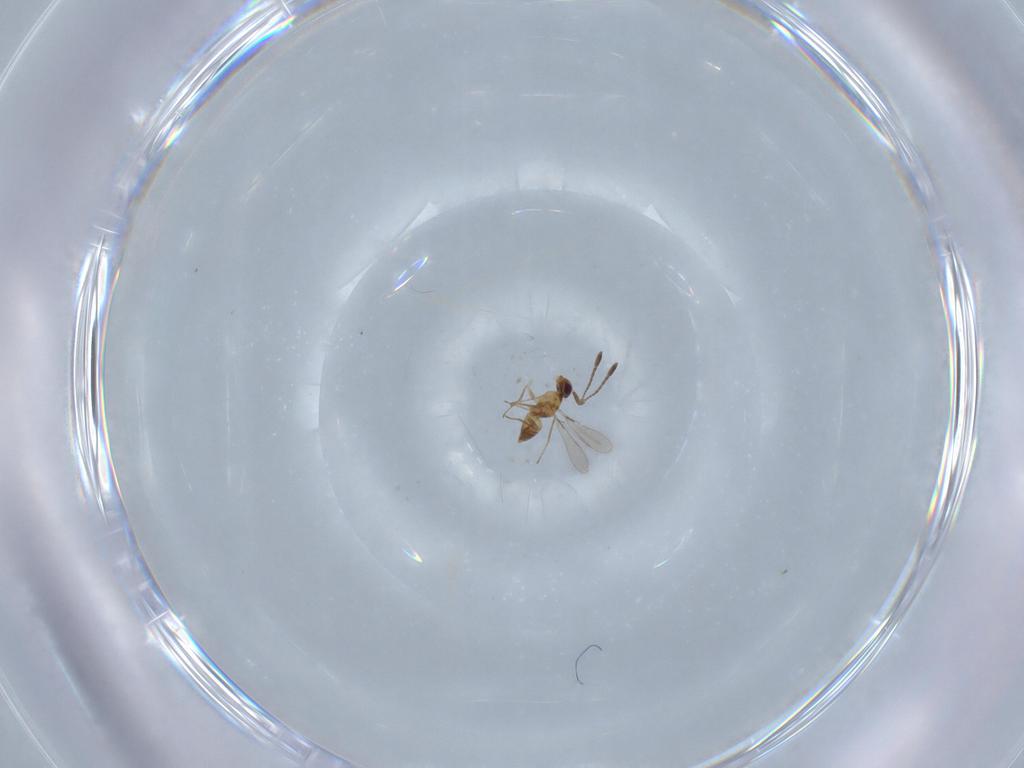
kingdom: Animalia
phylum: Arthropoda
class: Insecta
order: Hymenoptera
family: Mymaridae
